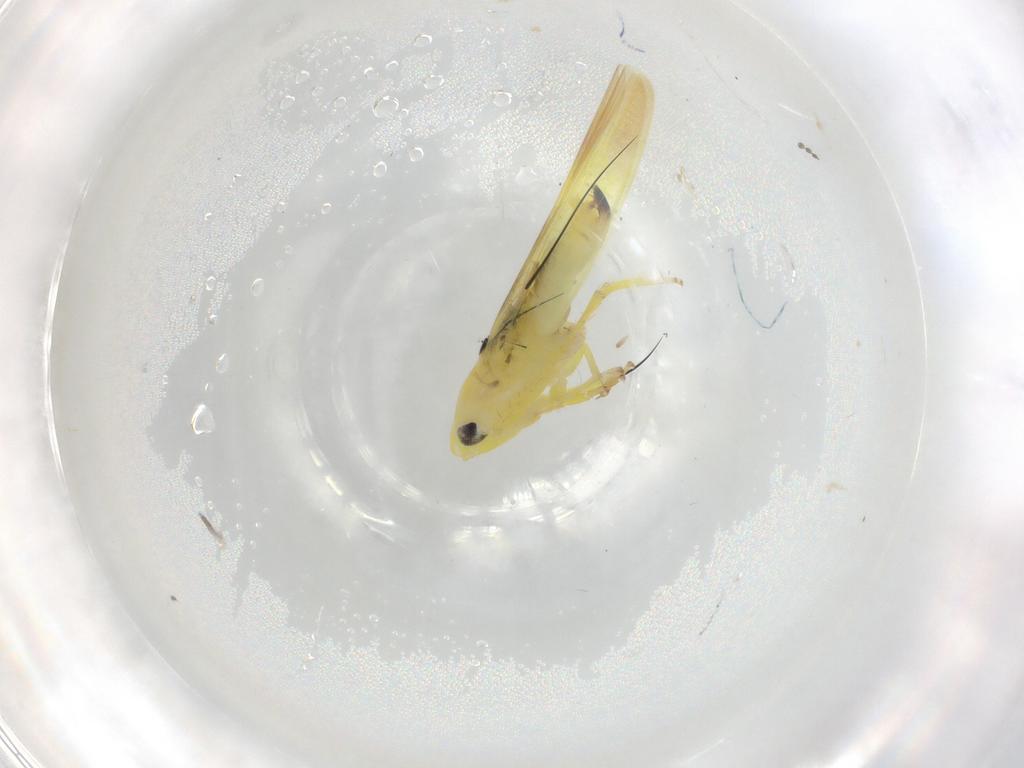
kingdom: Animalia
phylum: Arthropoda
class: Insecta
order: Hemiptera
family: Cicadellidae
